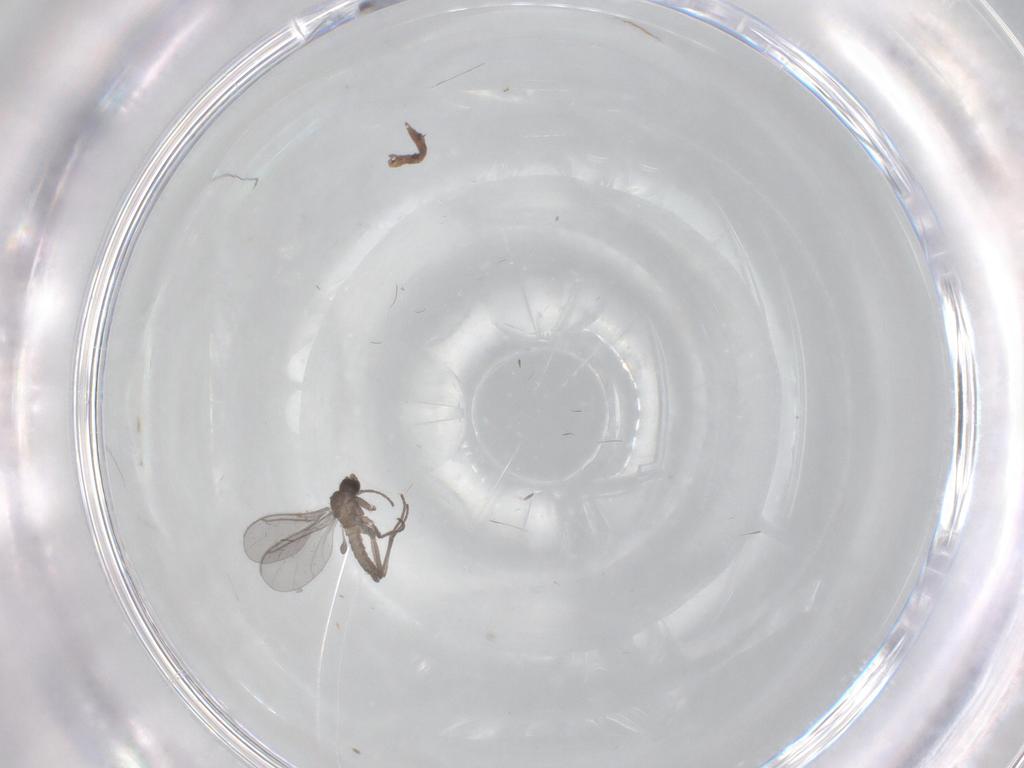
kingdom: Animalia
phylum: Arthropoda
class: Insecta
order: Diptera
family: Sciaridae
